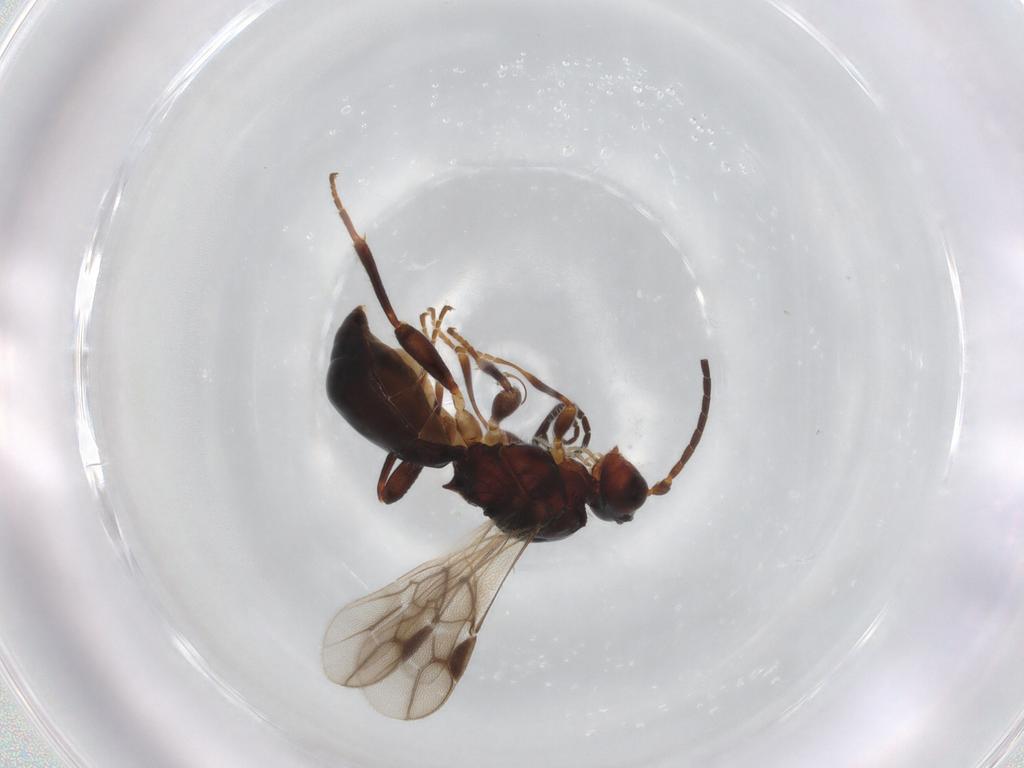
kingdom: Animalia
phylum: Arthropoda
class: Insecta
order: Hymenoptera
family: Braconidae
